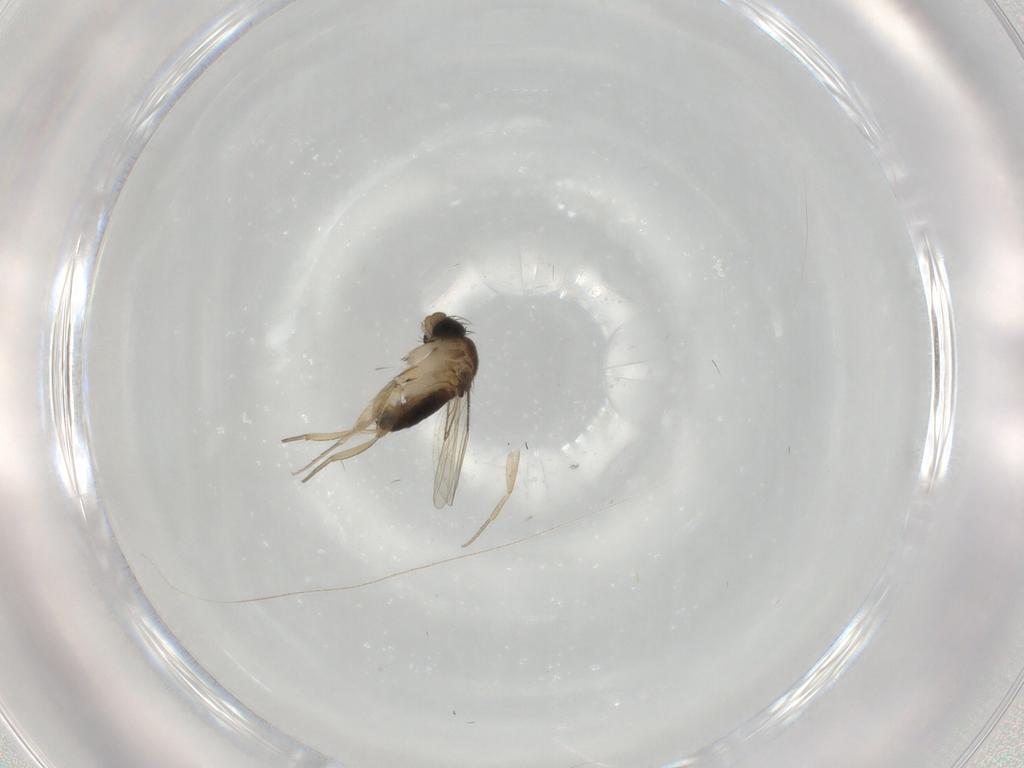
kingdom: Animalia
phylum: Arthropoda
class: Insecta
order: Diptera
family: Phoridae
